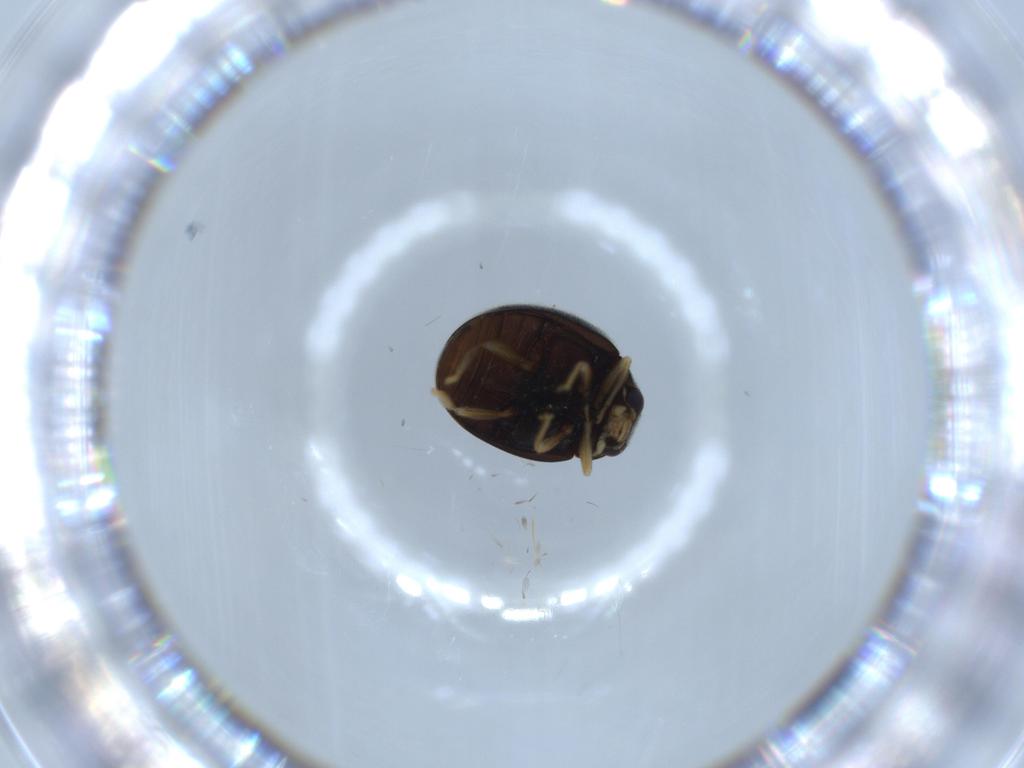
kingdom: Animalia
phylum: Arthropoda
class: Insecta
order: Coleoptera
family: Coccinellidae
